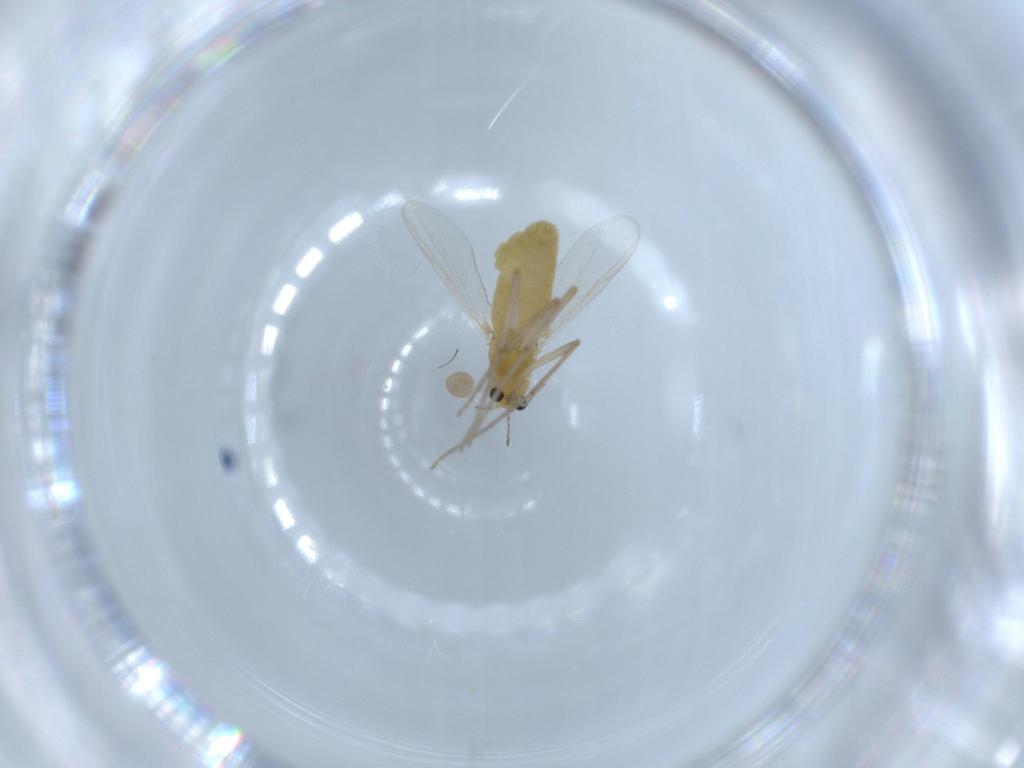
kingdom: Animalia
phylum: Arthropoda
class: Insecta
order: Diptera
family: Chironomidae
